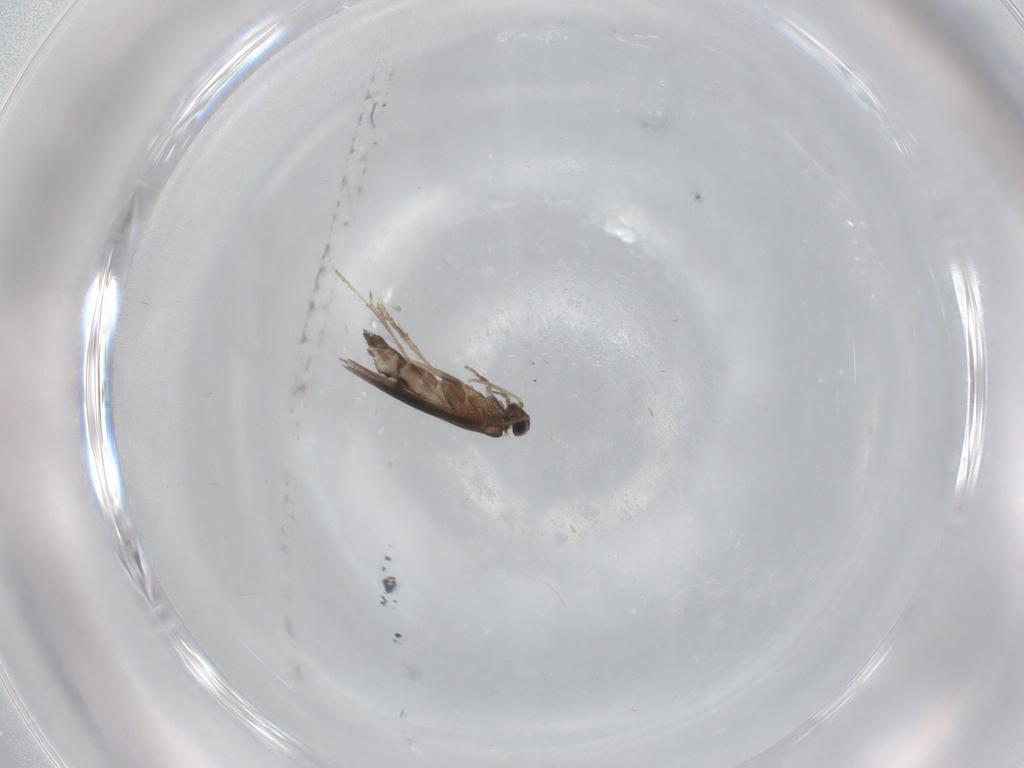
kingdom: Animalia
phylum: Arthropoda
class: Insecta
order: Trichoptera
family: Hydroptilidae
